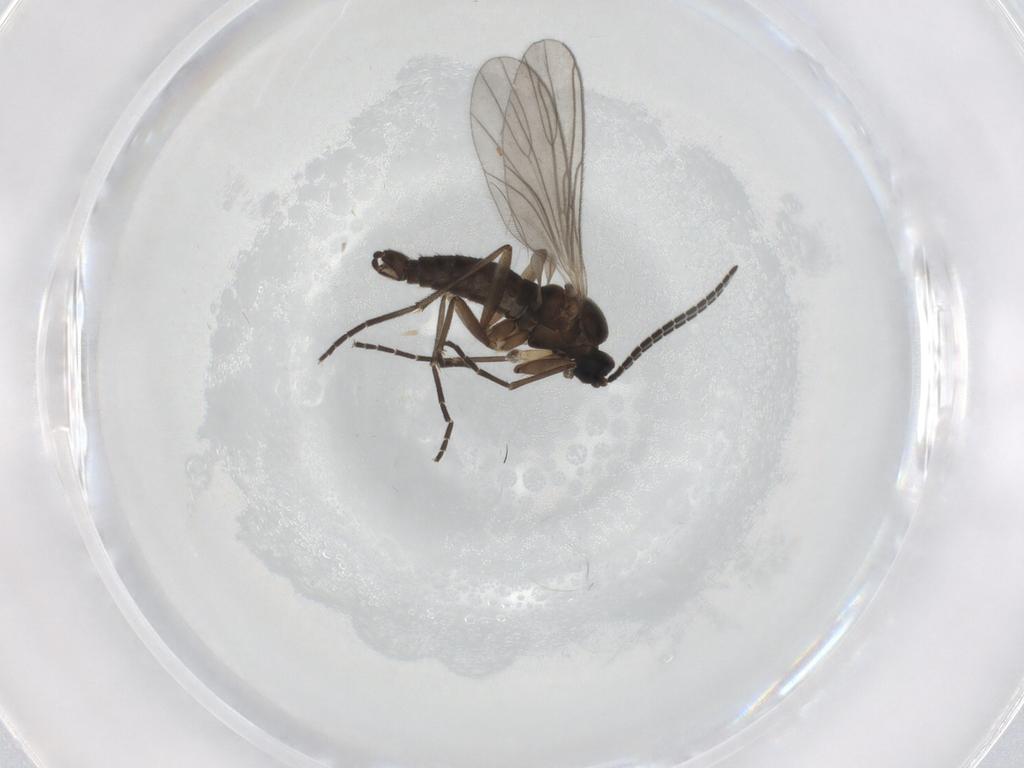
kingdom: Animalia
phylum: Arthropoda
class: Insecta
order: Diptera
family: Sciaridae
